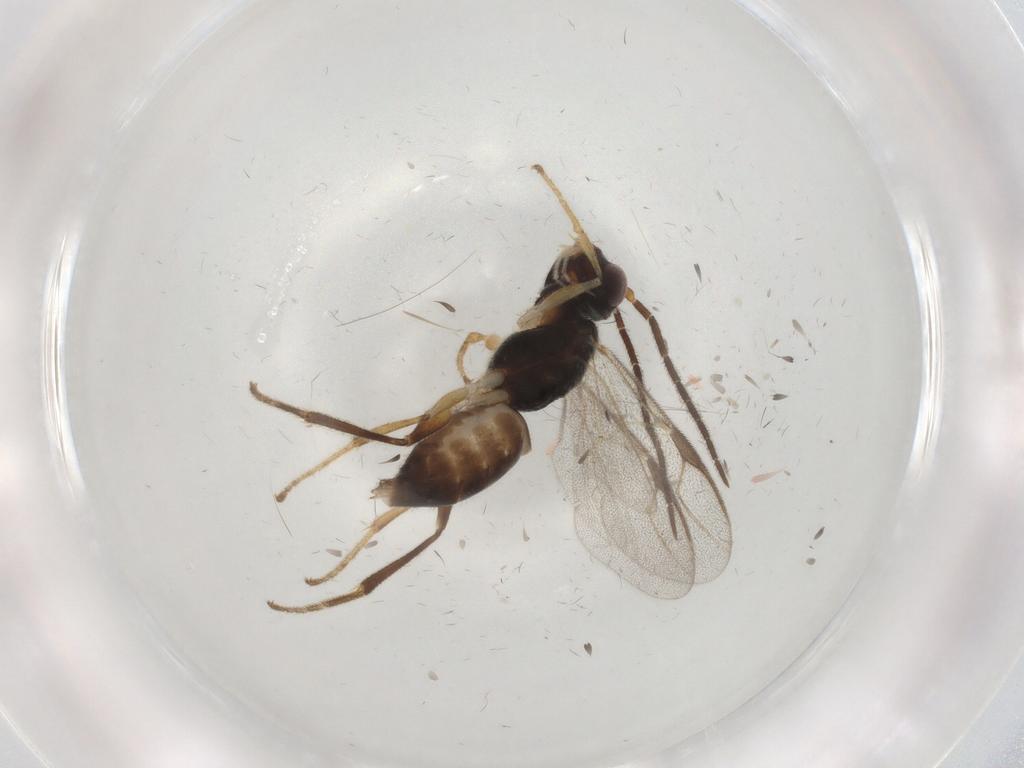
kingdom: Animalia
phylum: Arthropoda
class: Insecta
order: Hymenoptera
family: Dryinidae
